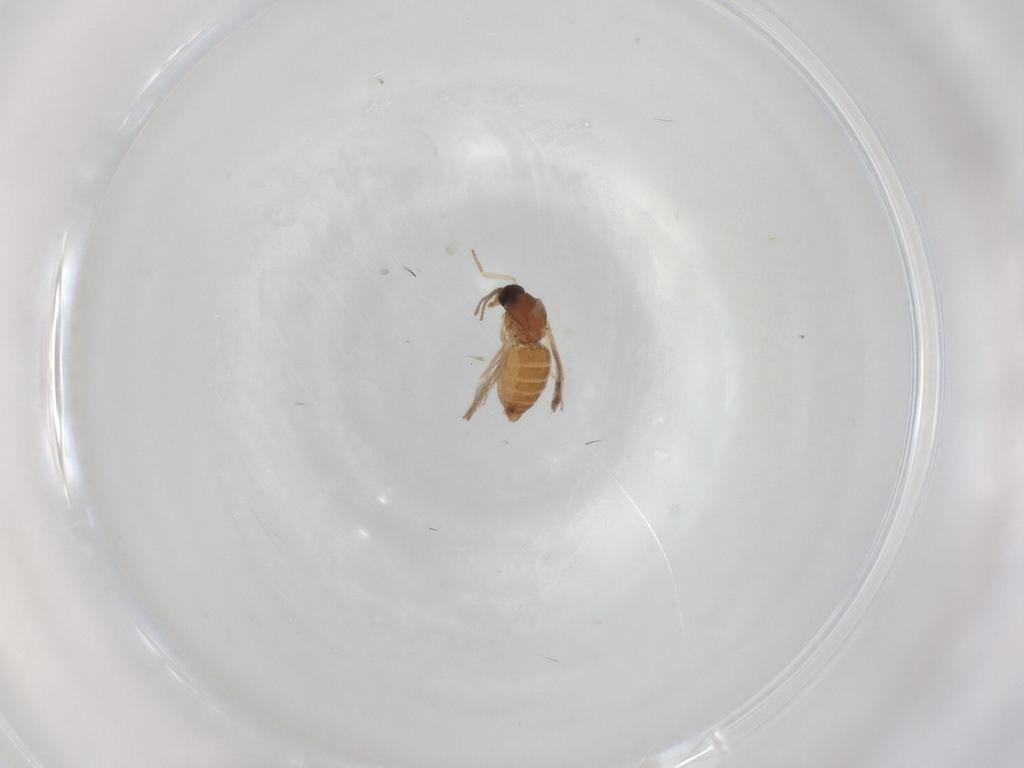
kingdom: Animalia
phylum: Arthropoda
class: Insecta
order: Diptera
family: Ceratopogonidae
